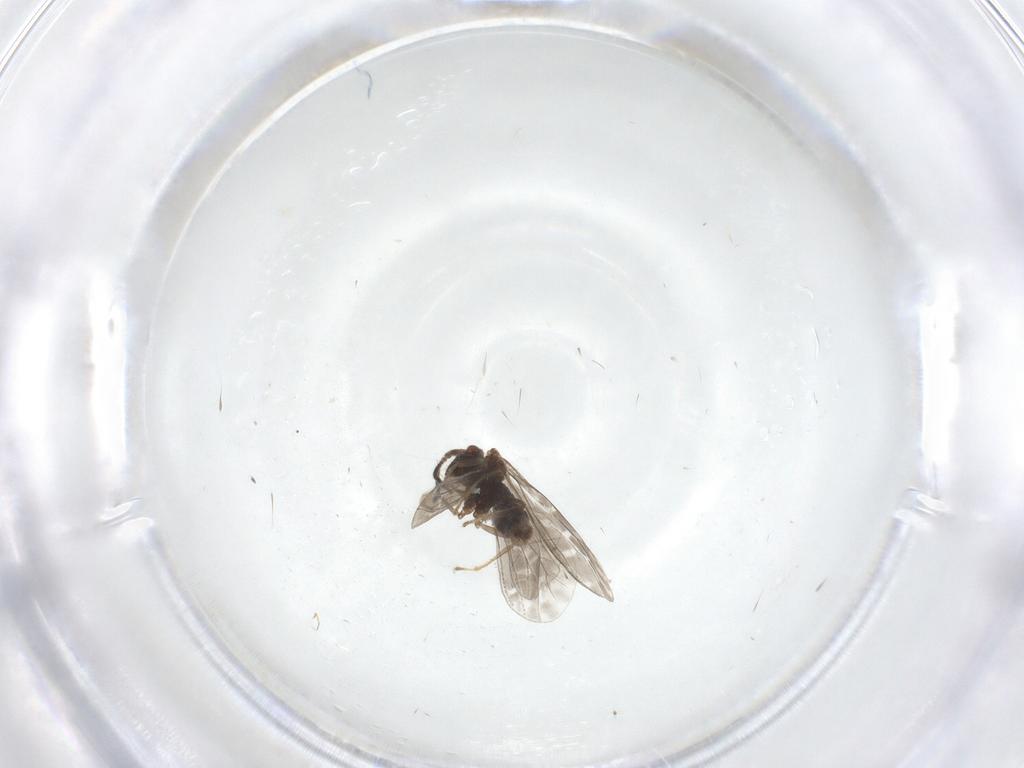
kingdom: Animalia
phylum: Arthropoda
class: Insecta
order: Neuroptera
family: Coniopterygidae
